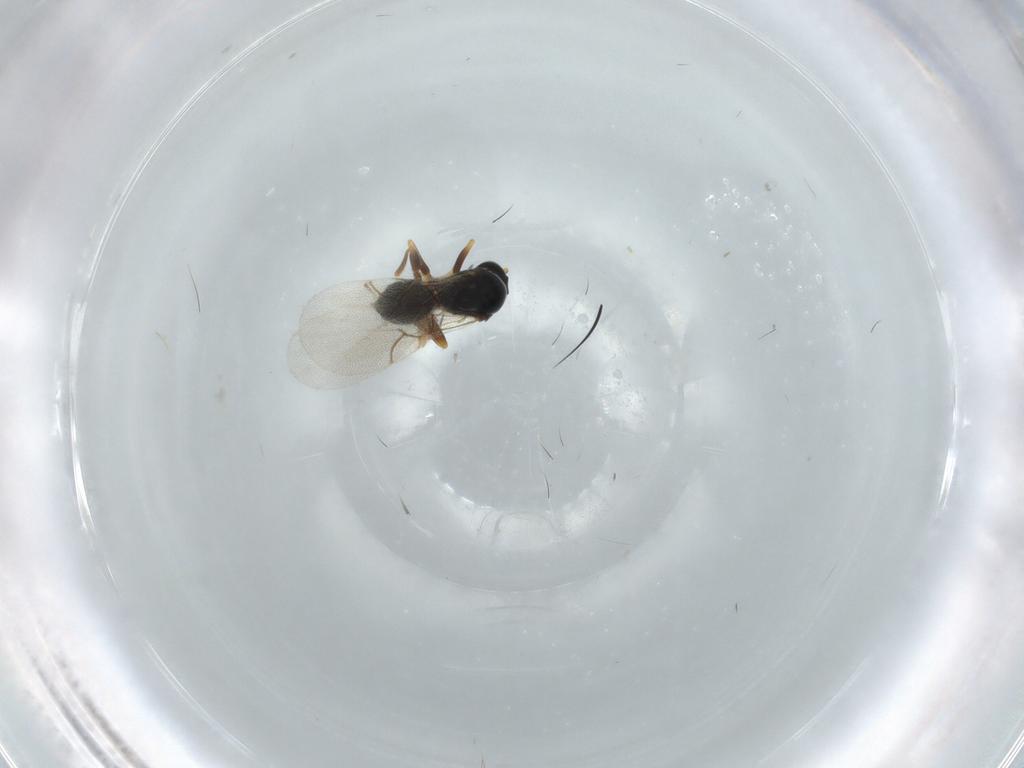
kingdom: Animalia
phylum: Arthropoda
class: Insecta
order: Hymenoptera
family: Figitidae
